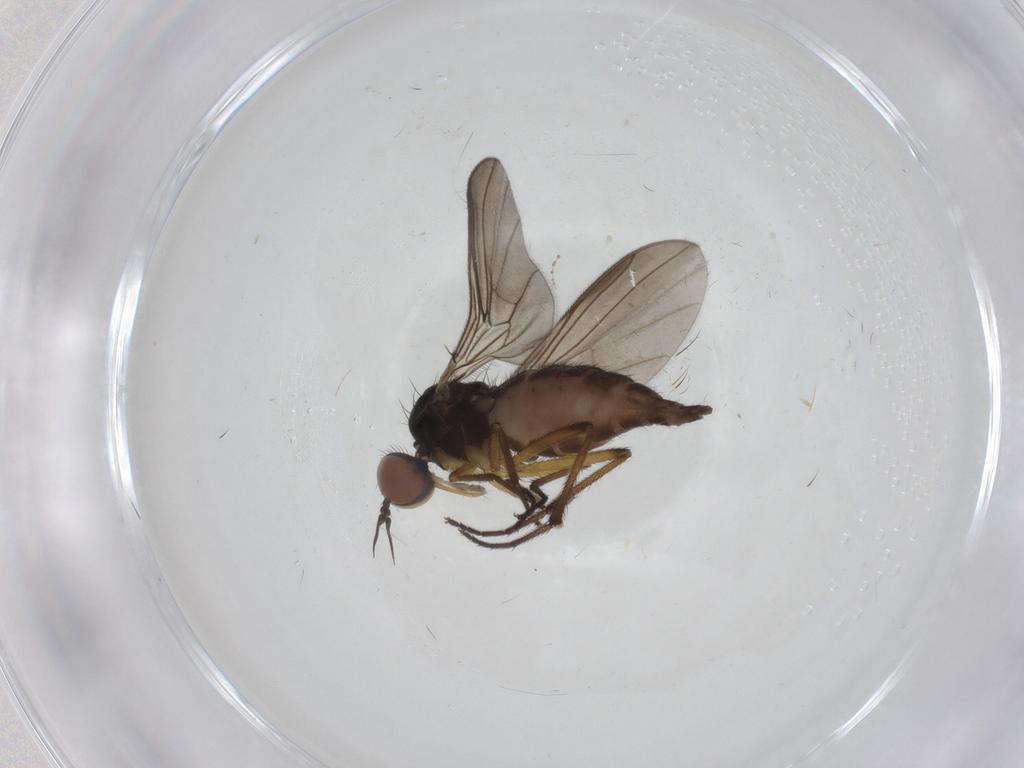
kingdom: Animalia
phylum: Arthropoda
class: Insecta
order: Diptera
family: Empididae
